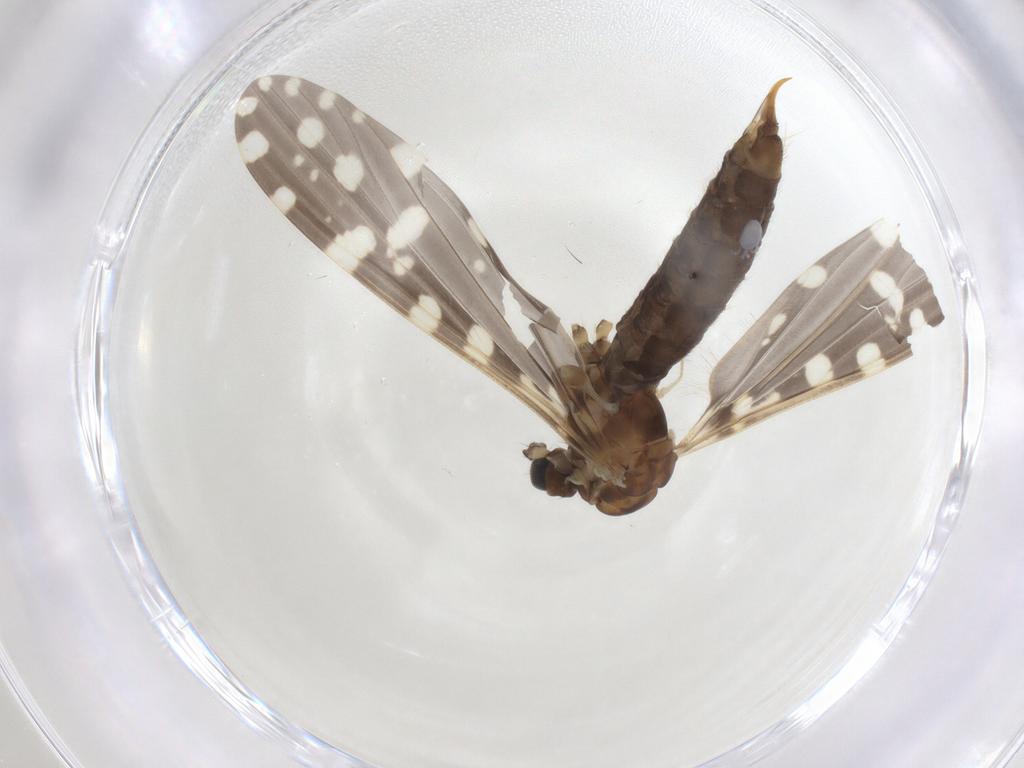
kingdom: Animalia
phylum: Arthropoda
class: Insecta
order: Diptera
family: Limoniidae
